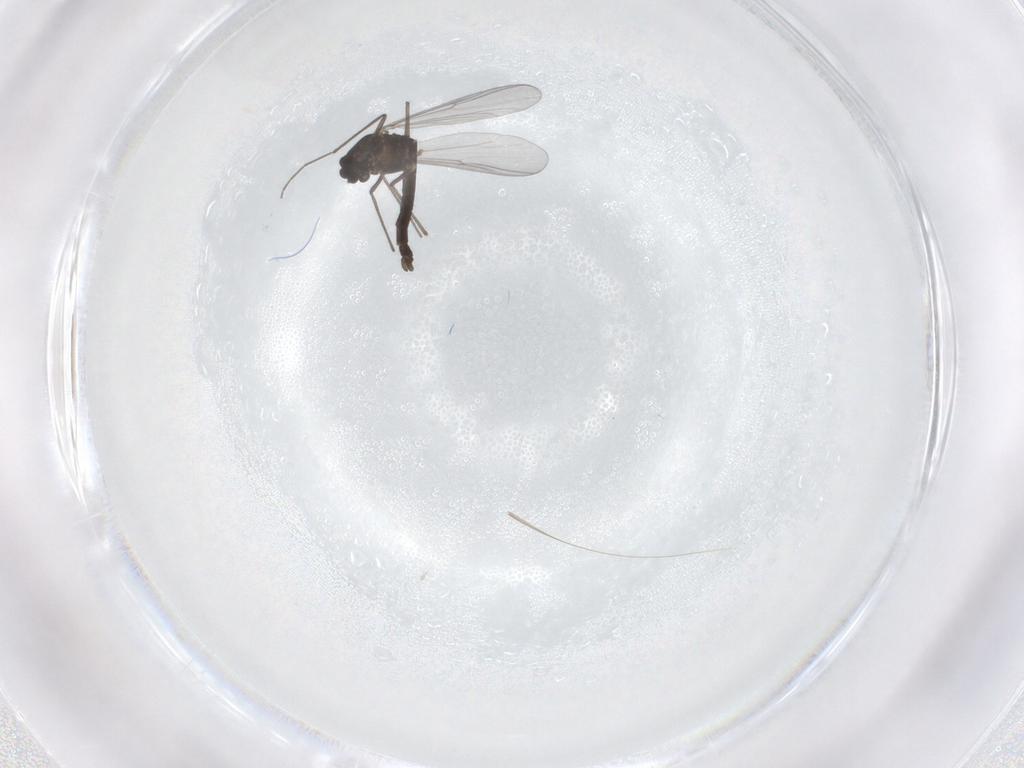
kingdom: Animalia
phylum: Arthropoda
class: Insecta
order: Diptera
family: Chironomidae
